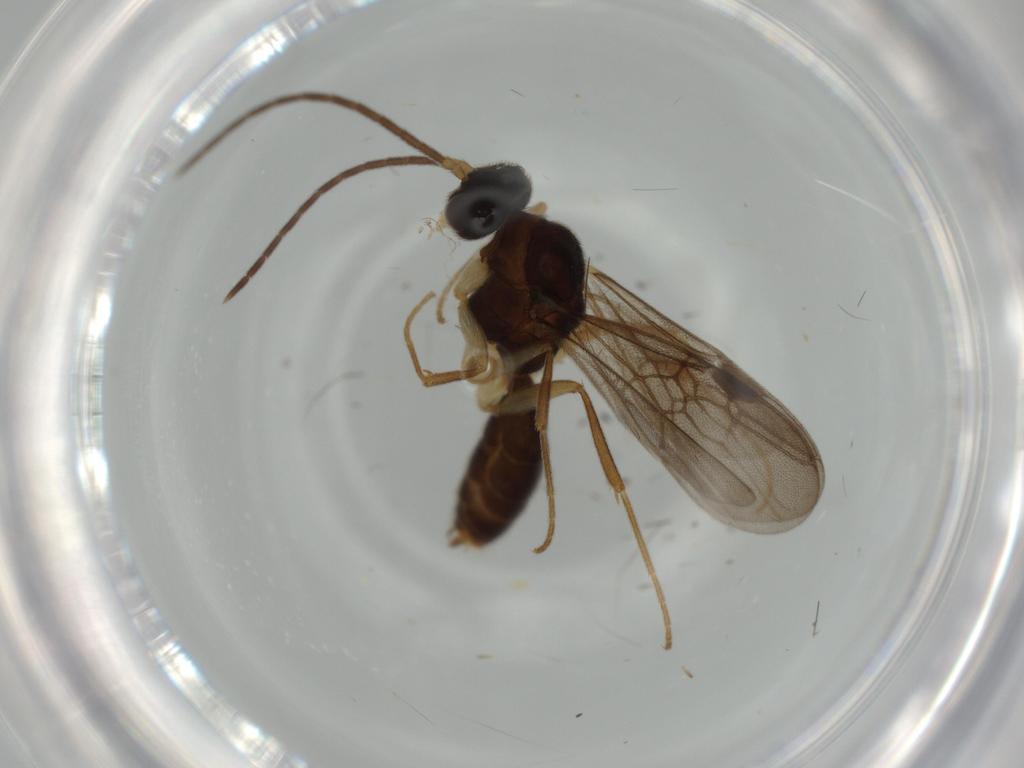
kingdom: Animalia
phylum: Arthropoda
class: Insecta
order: Hymenoptera
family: Formicidae
